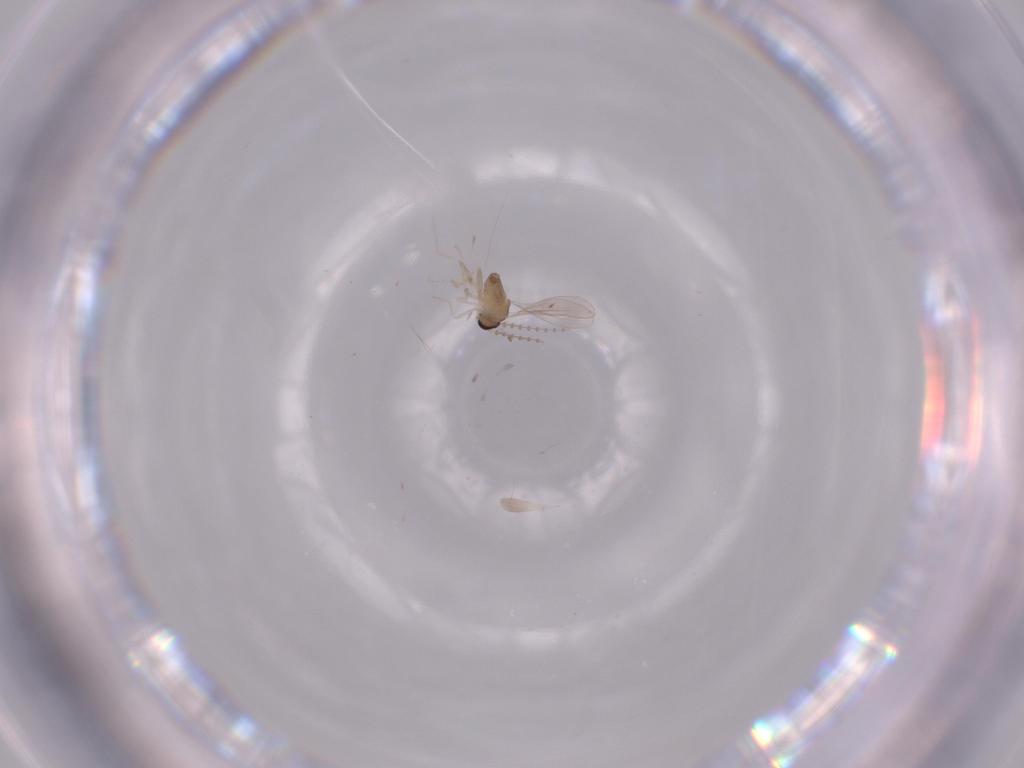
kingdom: Animalia
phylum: Arthropoda
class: Insecta
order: Diptera
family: Cecidomyiidae
